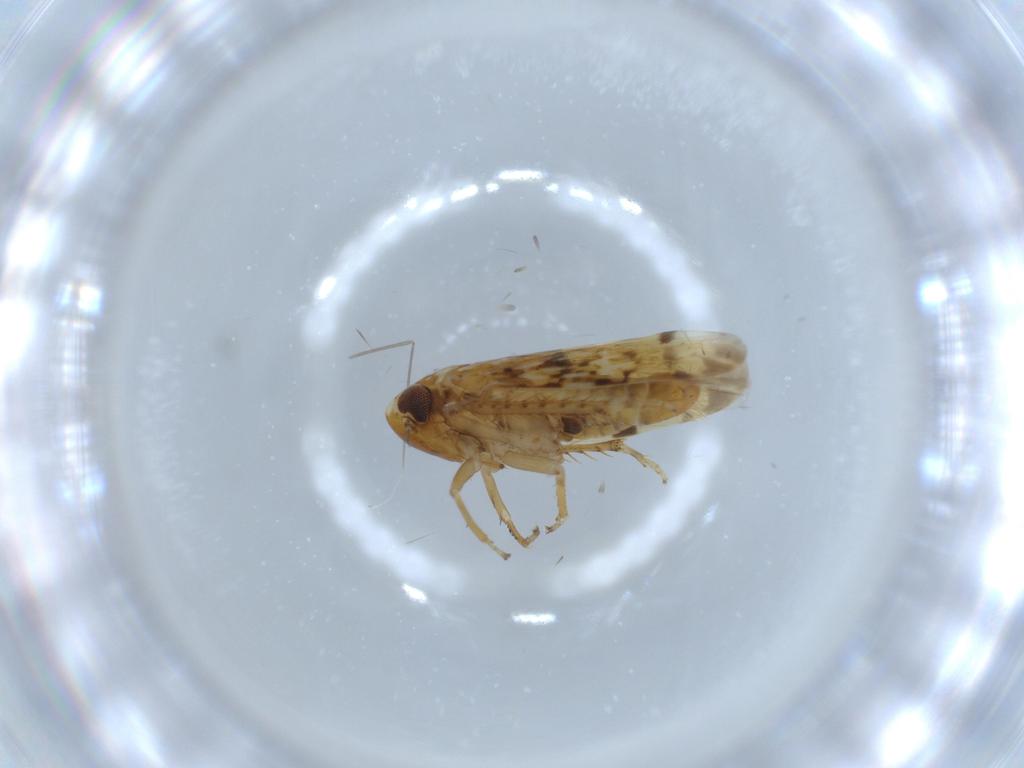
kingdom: Animalia
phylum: Arthropoda
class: Insecta
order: Hemiptera
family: Cicadellidae
